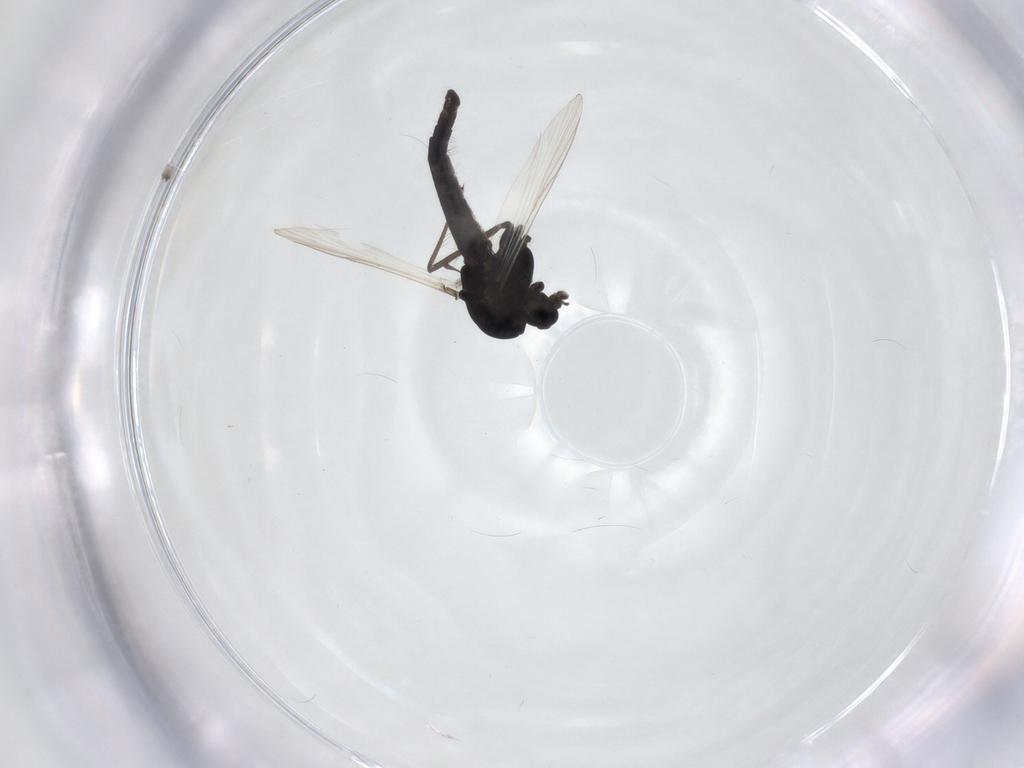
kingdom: Animalia
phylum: Arthropoda
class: Insecta
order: Diptera
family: Chironomidae
